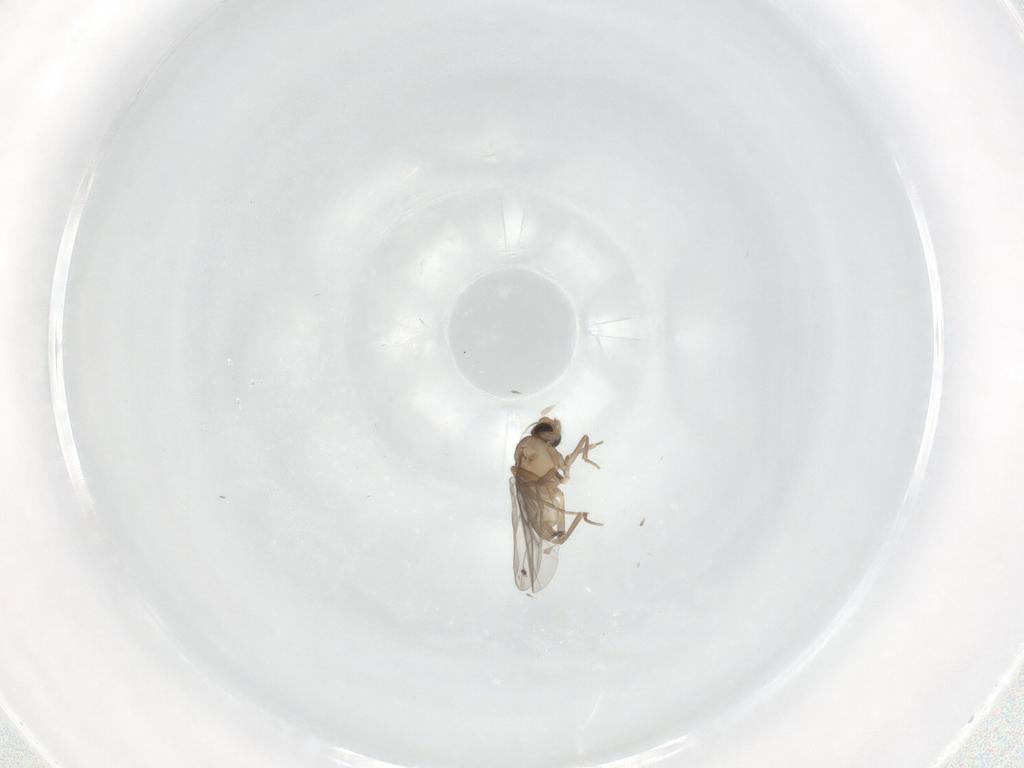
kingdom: Animalia
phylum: Arthropoda
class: Insecta
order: Diptera
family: Cecidomyiidae
